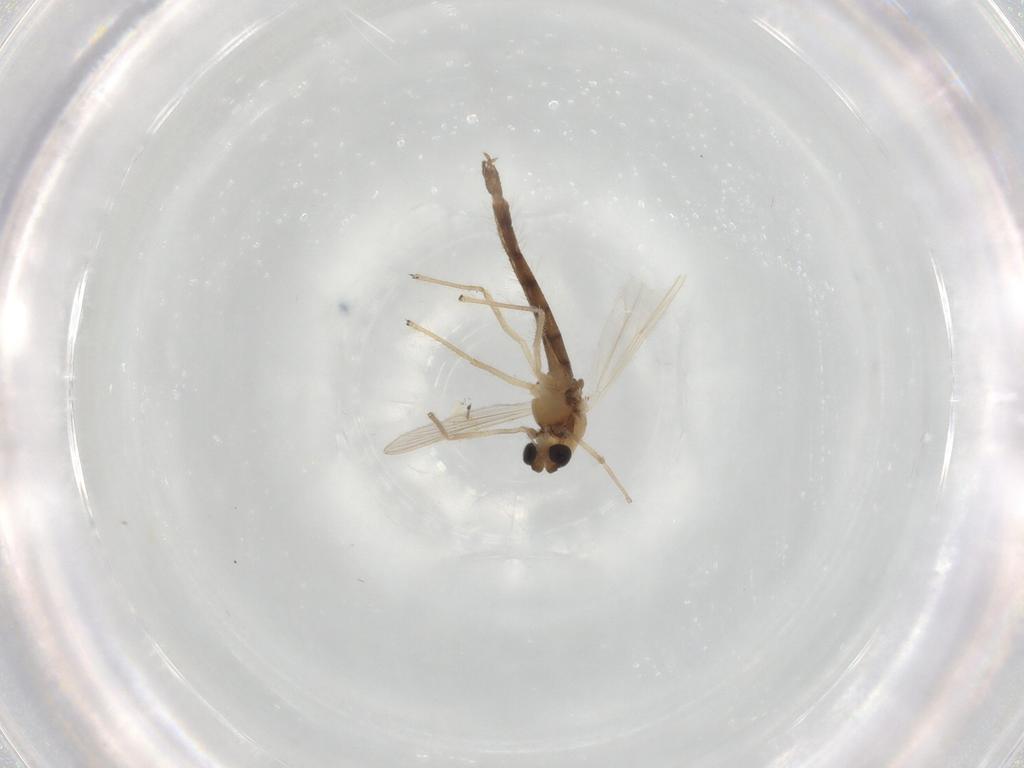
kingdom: Animalia
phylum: Arthropoda
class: Insecta
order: Diptera
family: Chironomidae
